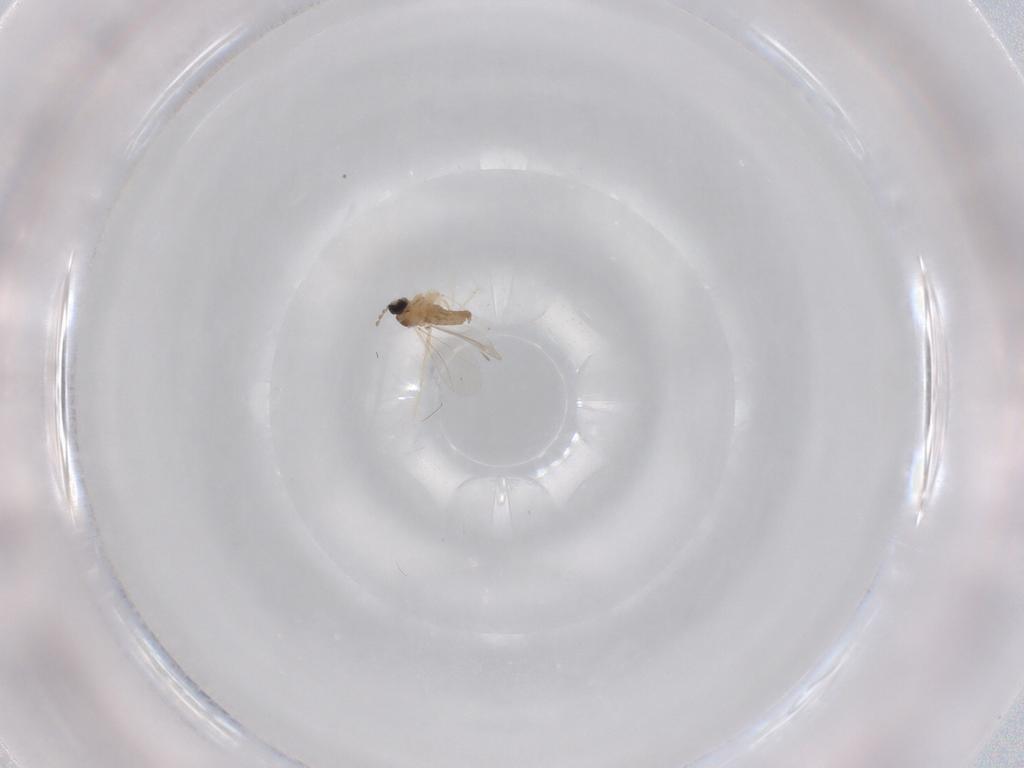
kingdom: Animalia
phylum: Arthropoda
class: Insecta
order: Diptera
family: Cecidomyiidae
